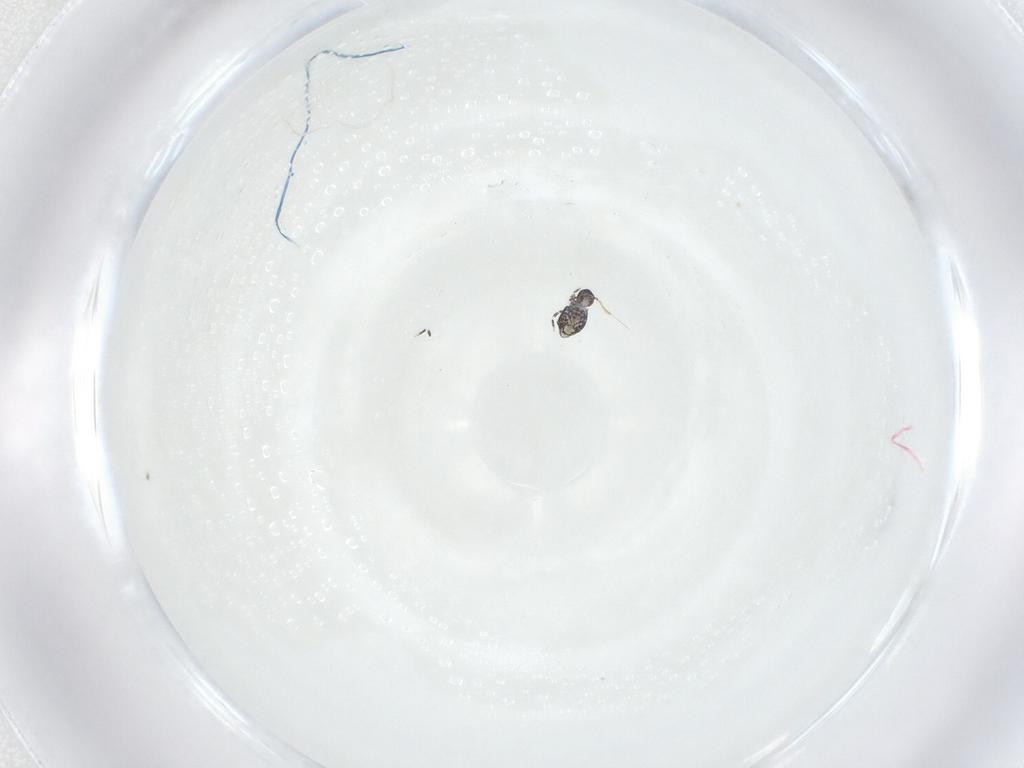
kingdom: Animalia
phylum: Arthropoda
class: Collembola
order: Symphypleona
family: Katiannidae
